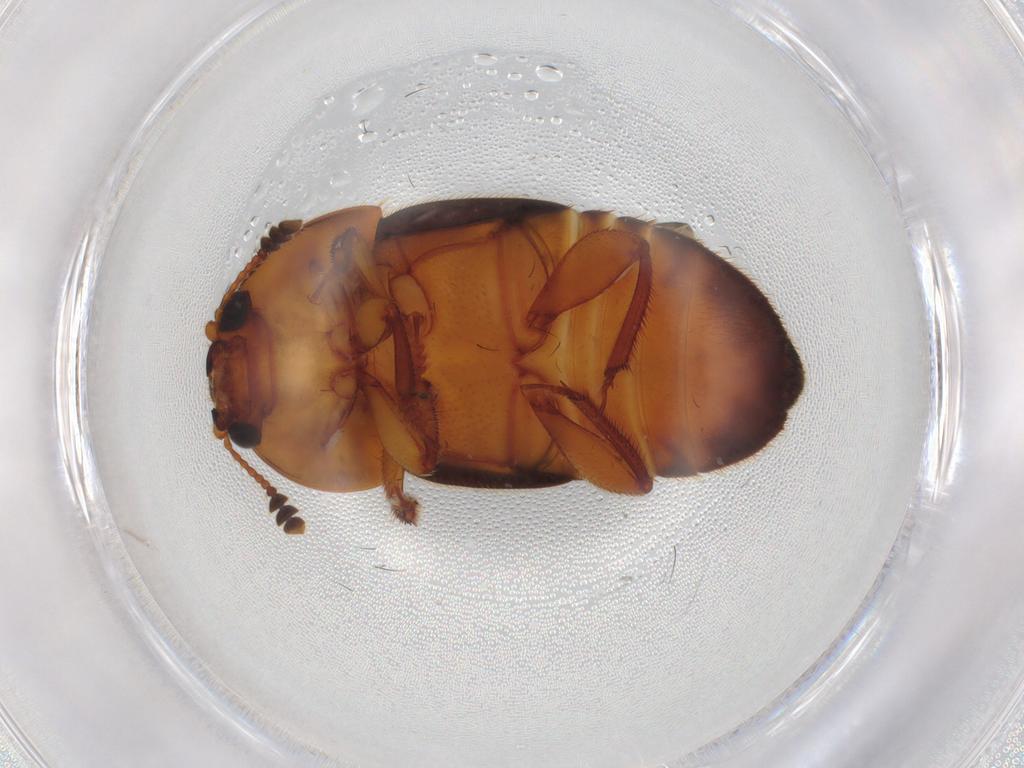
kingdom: Animalia
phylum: Arthropoda
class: Insecta
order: Coleoptera
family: Nitidulidae
